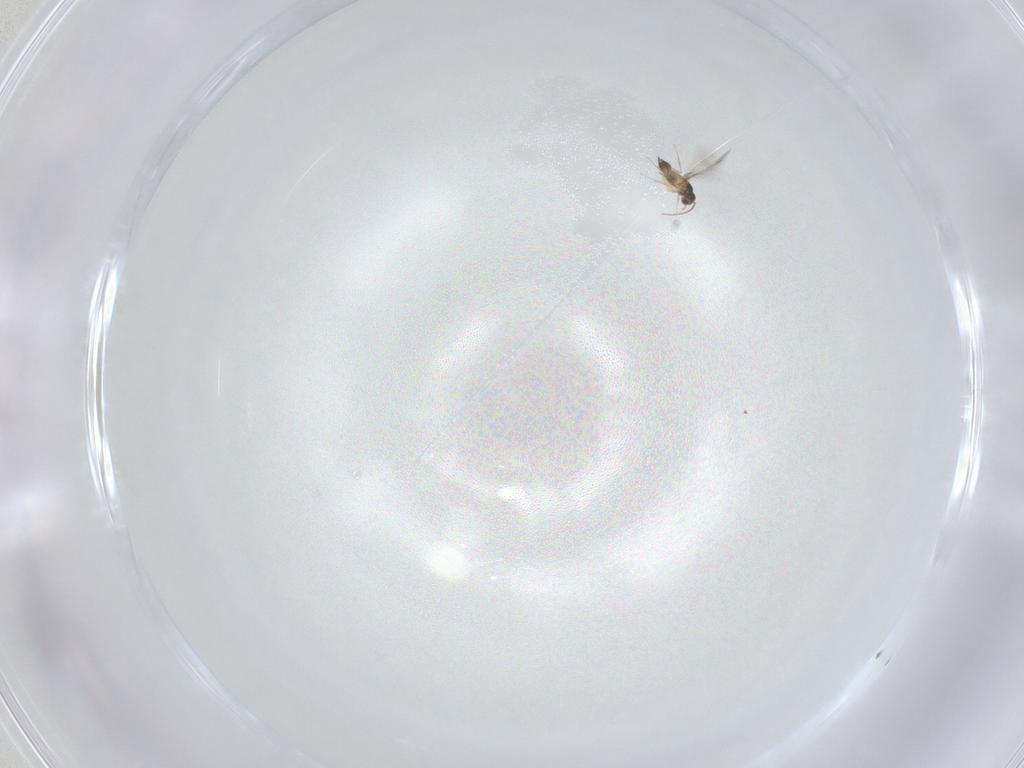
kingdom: Animalia
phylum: Arthropoda
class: Insecta
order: Hymenoptera
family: Mymaridae
